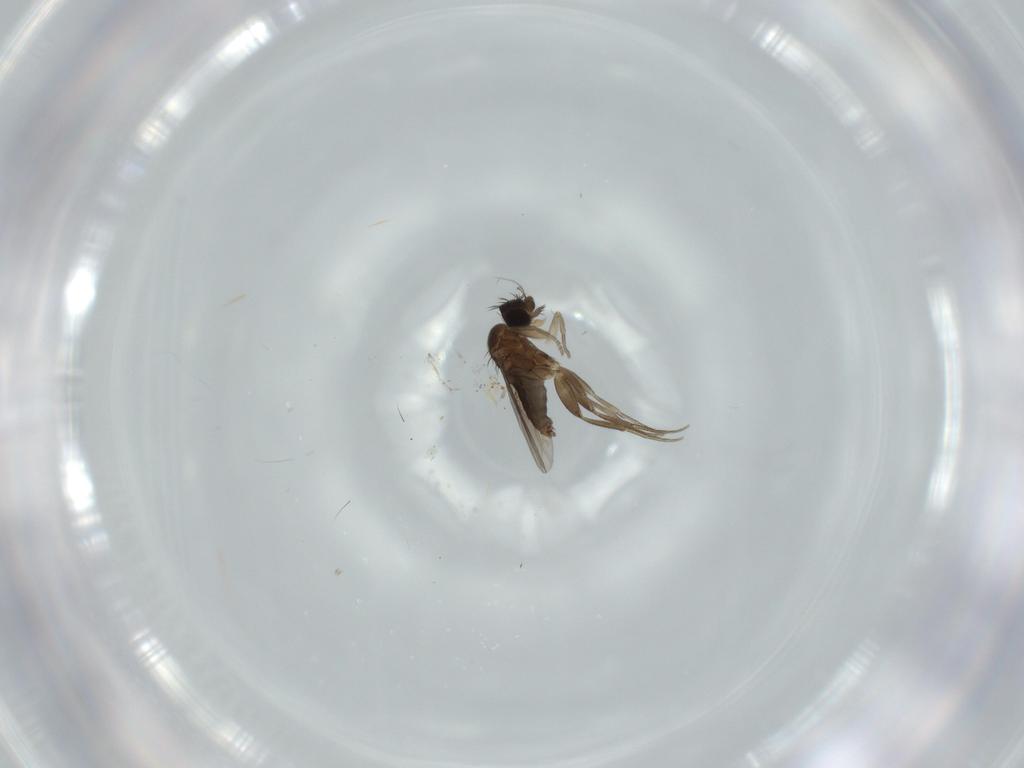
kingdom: Animalia
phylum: Arthropoda
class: Insecta
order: Diptera
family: Phoridae
